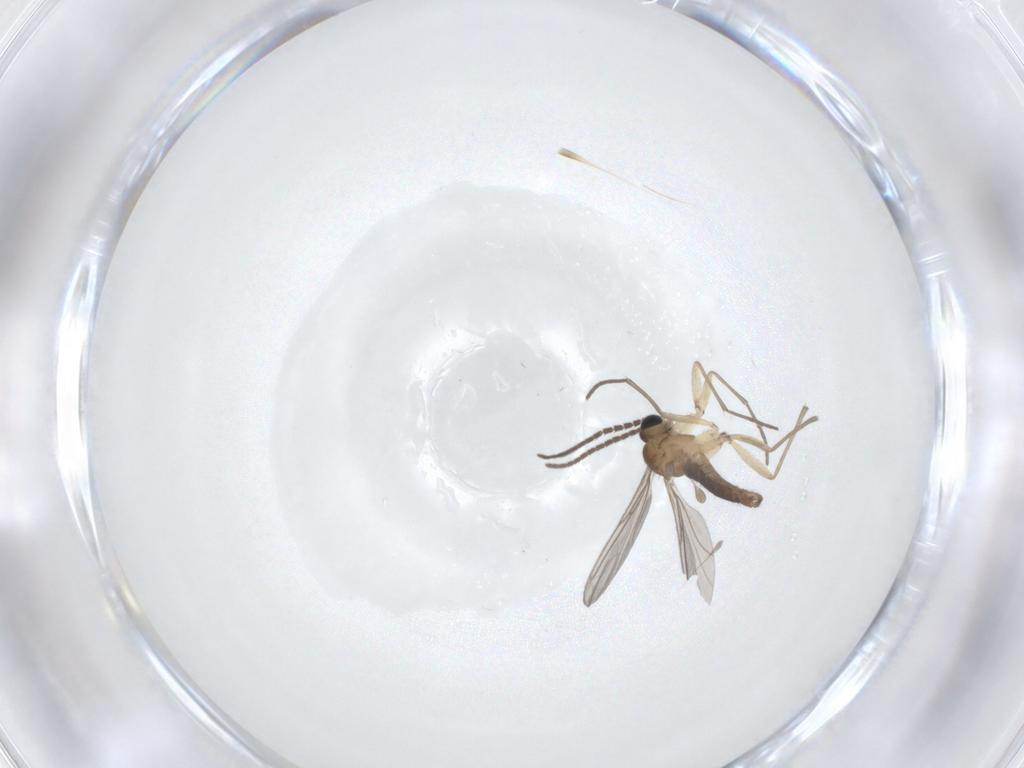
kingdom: Animalia
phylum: Arthropoda
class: Insecta
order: Diptera
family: Sciaridae
